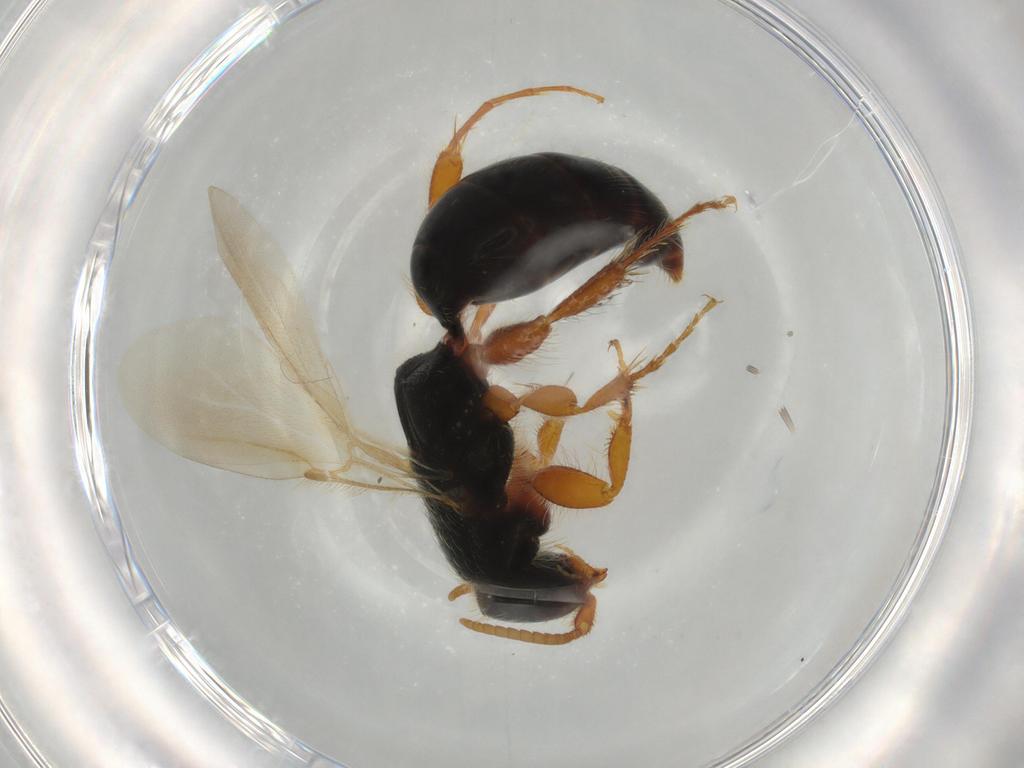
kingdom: Animalia
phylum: Arthropoda
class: Insecta
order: Hymenoptera
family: Bethylidae
